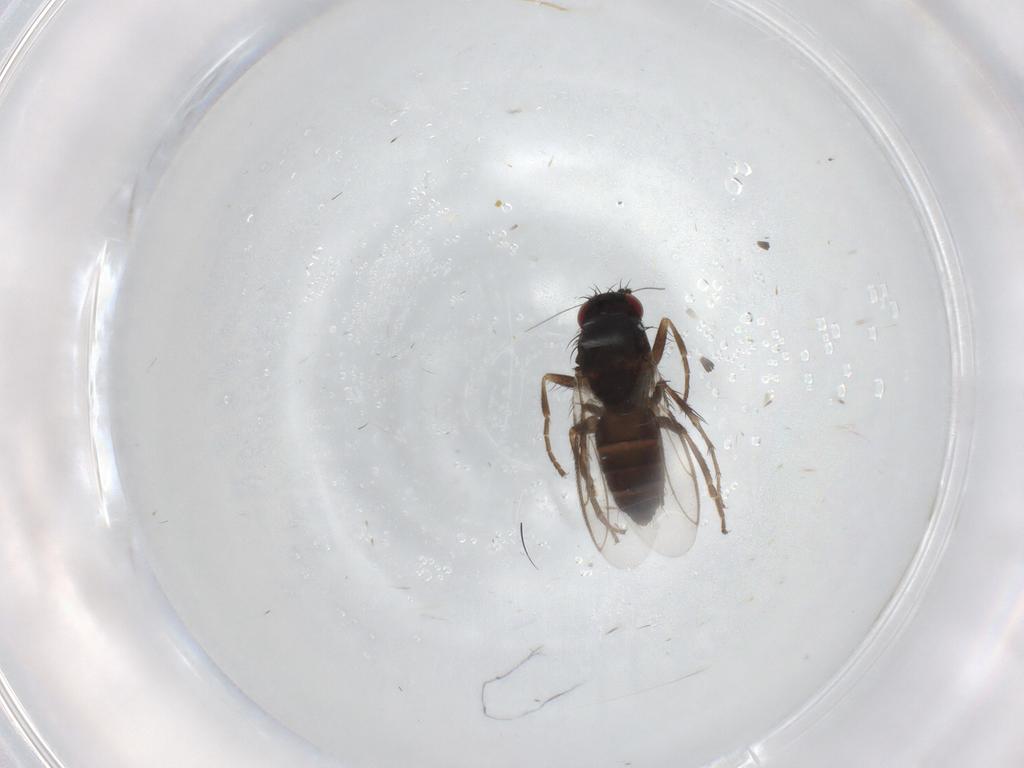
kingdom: Animalia
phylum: Arthropoda
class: Insecta
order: Diptera
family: Sphaeroceridae
